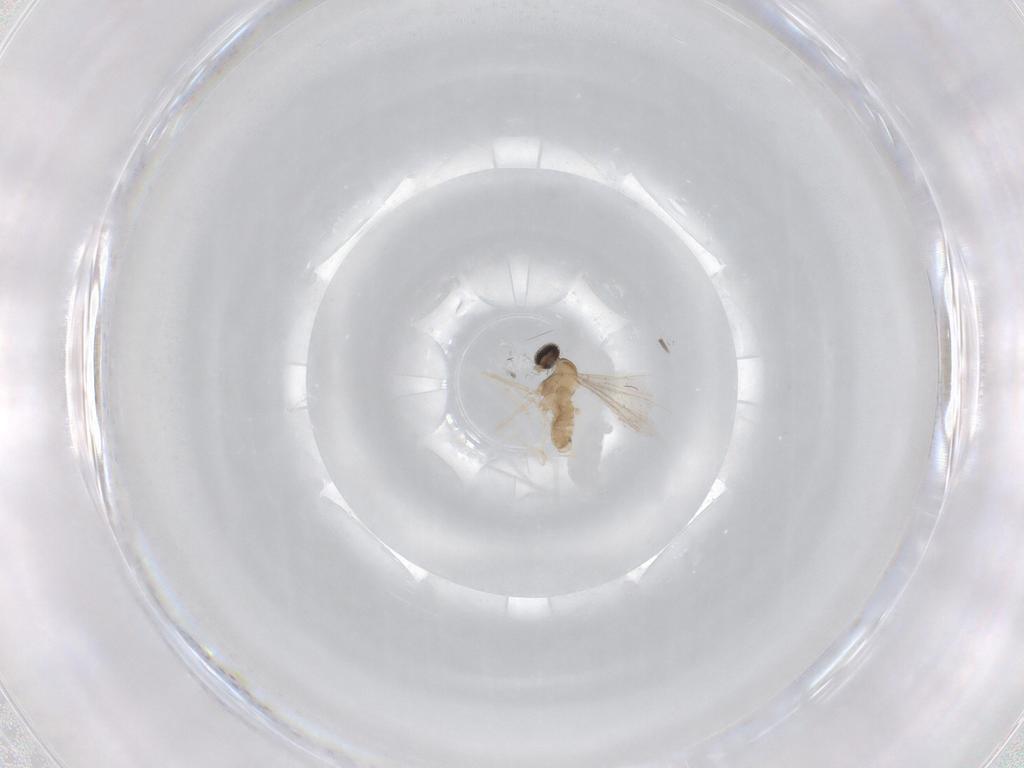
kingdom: Animalia
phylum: Arthropoda
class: Insecta
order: Diptera
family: Cecidomyiidae
